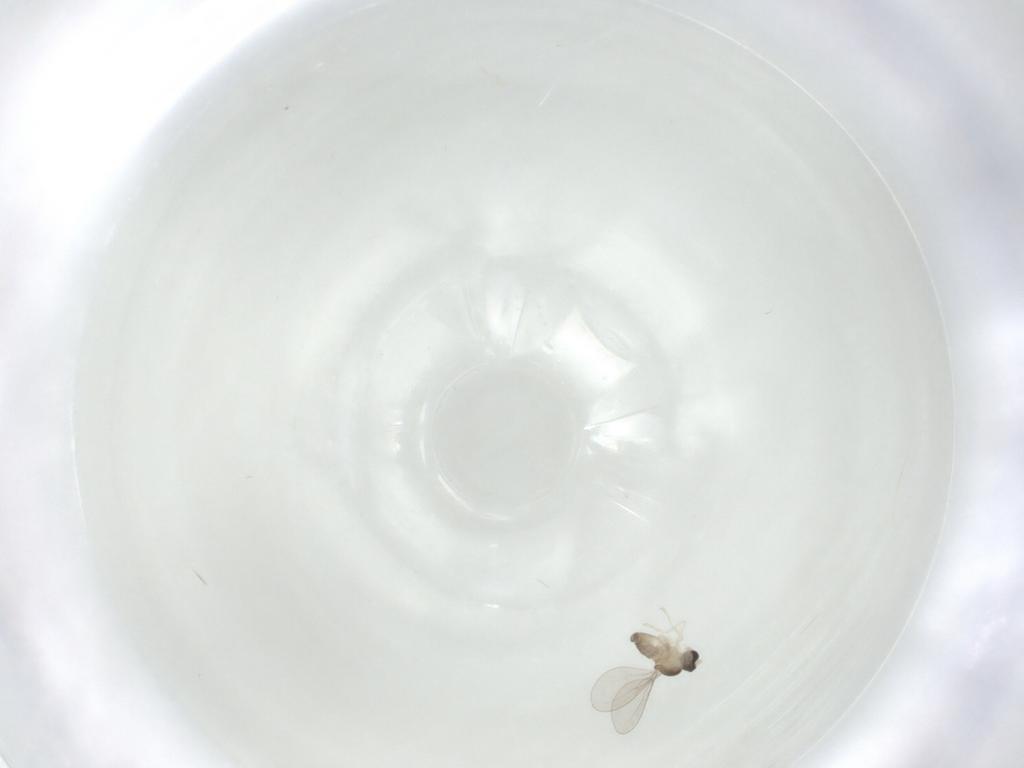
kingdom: Animalia
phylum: Arthropoda
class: Insecta
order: Diptera
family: Cecidomyiidae
